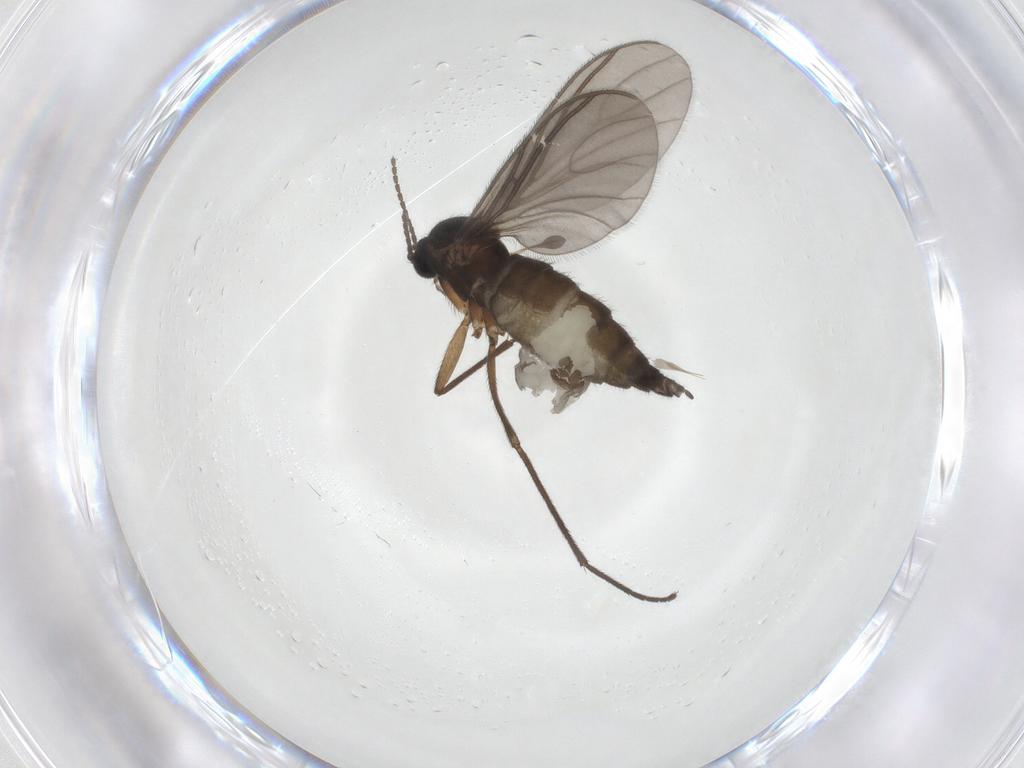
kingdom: Animalia
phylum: Arthropoda
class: Insecta
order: Diptera
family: Sciaridae
